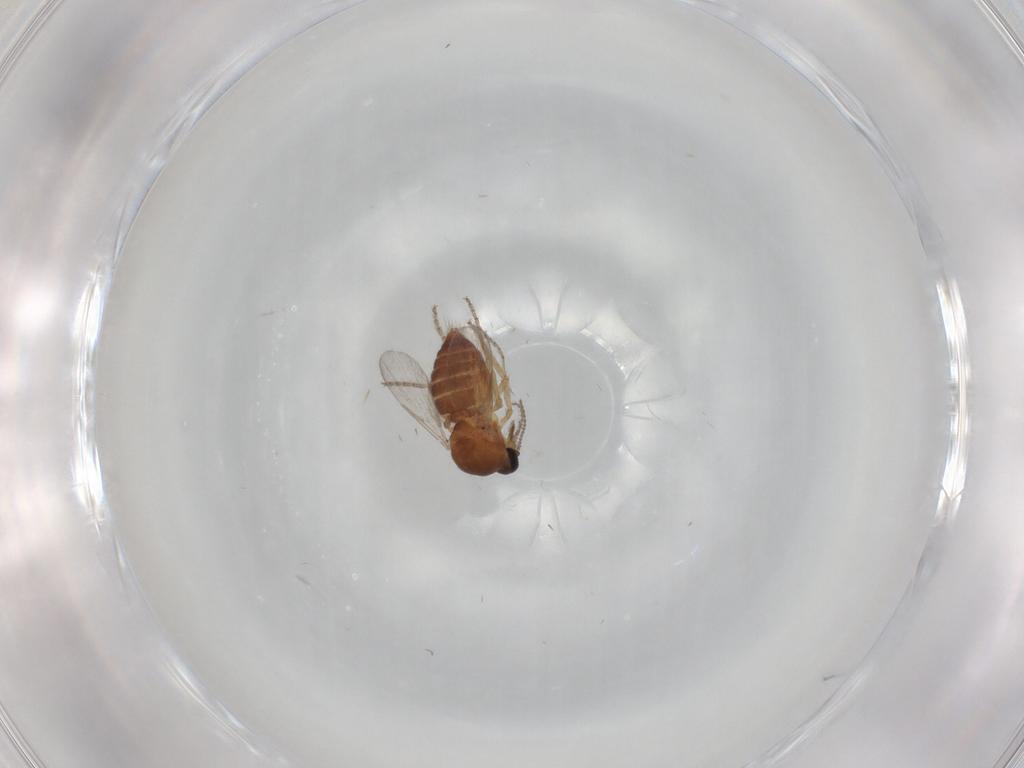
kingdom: Animalia
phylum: Arthropoda
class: Insecta
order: Diptera
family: Ceratopogonidae
